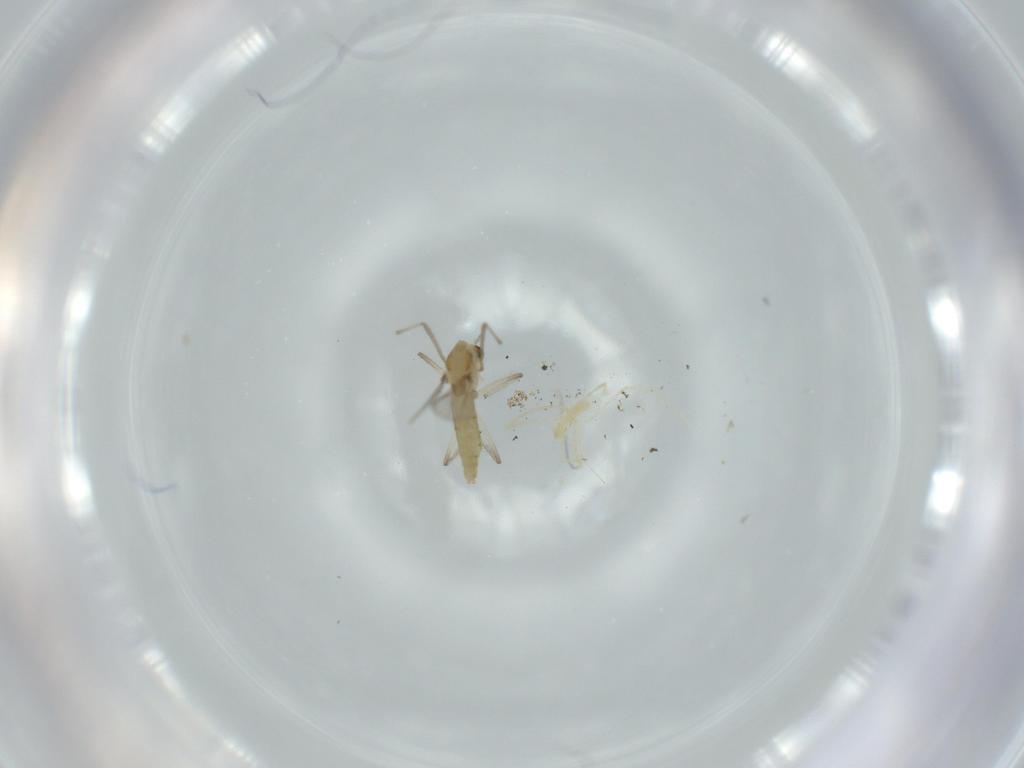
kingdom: Animalia
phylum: Arthropoda
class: Insecta
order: Diptera
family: Chironomidae
